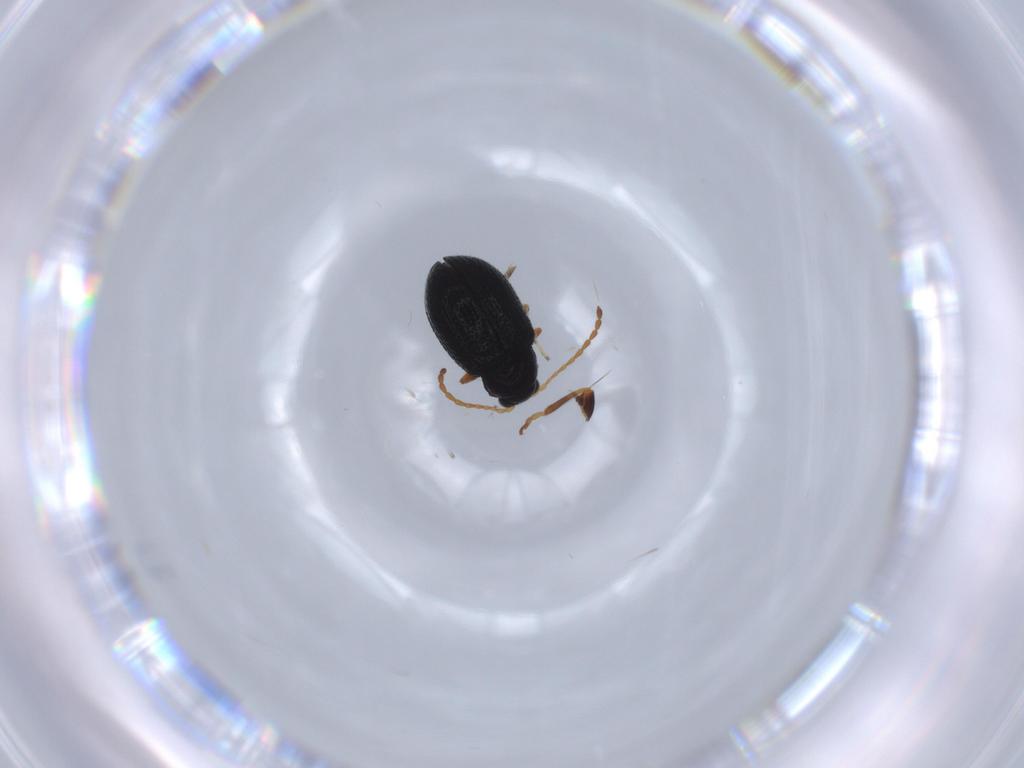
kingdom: Animalia
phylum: Arthropoda
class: Insecta
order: Coleoptera
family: Chrysomelidae
